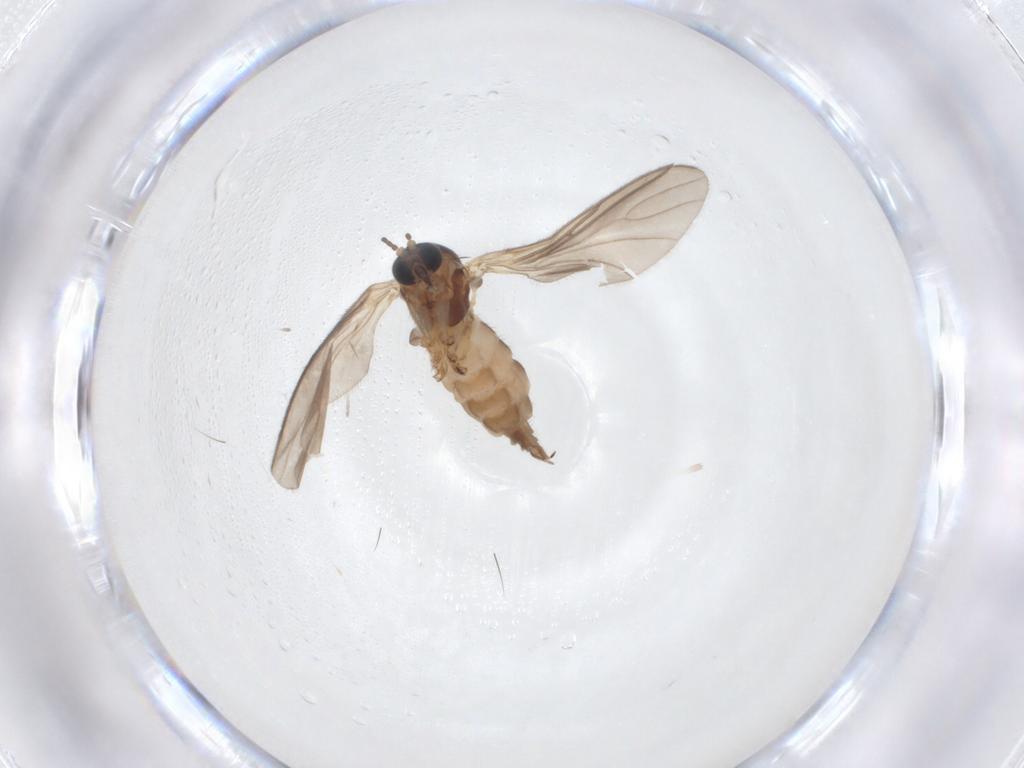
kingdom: Animalia
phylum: Arthropoda
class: Insecta
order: Diptera
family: Sciaridae
